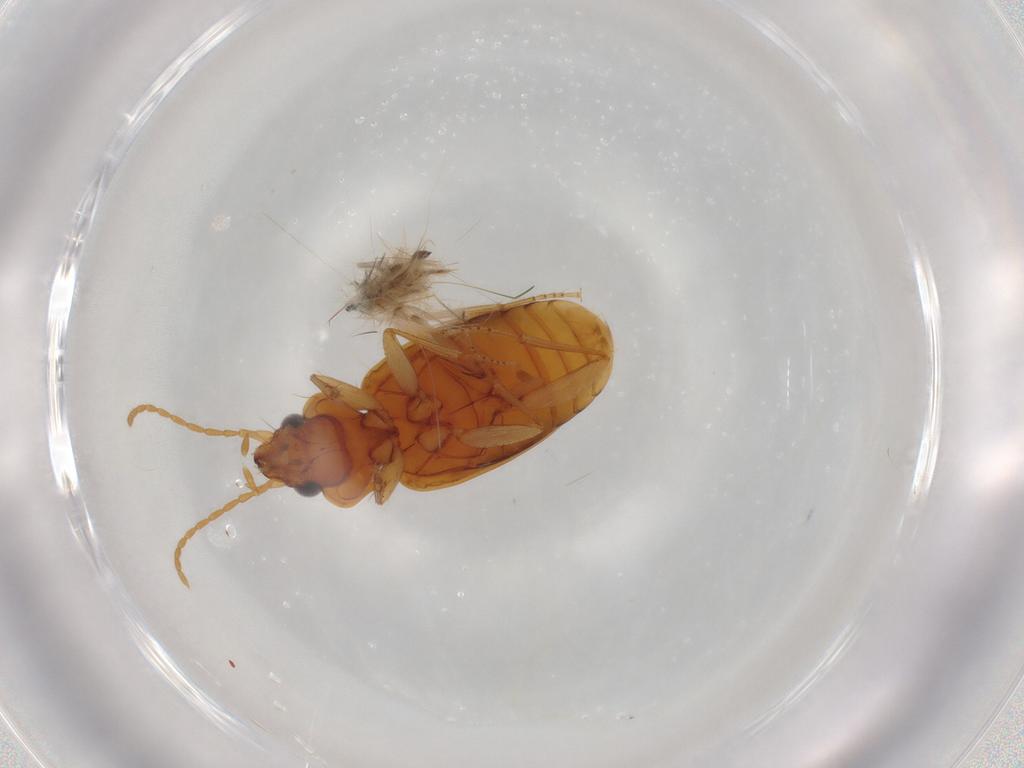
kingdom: Animalia
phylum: Arthropoda
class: Insecta
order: Coleoptera
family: Carabidae
